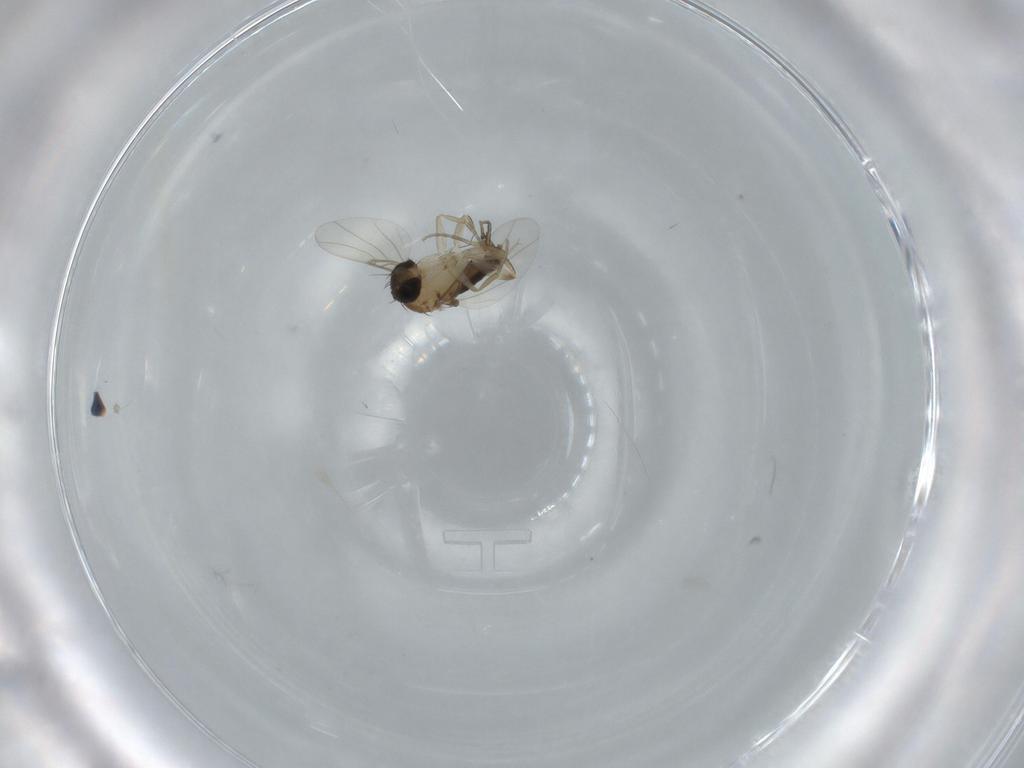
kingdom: Animalia
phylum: Arthropoda
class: Insecta
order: Diptera
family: Phoridae
